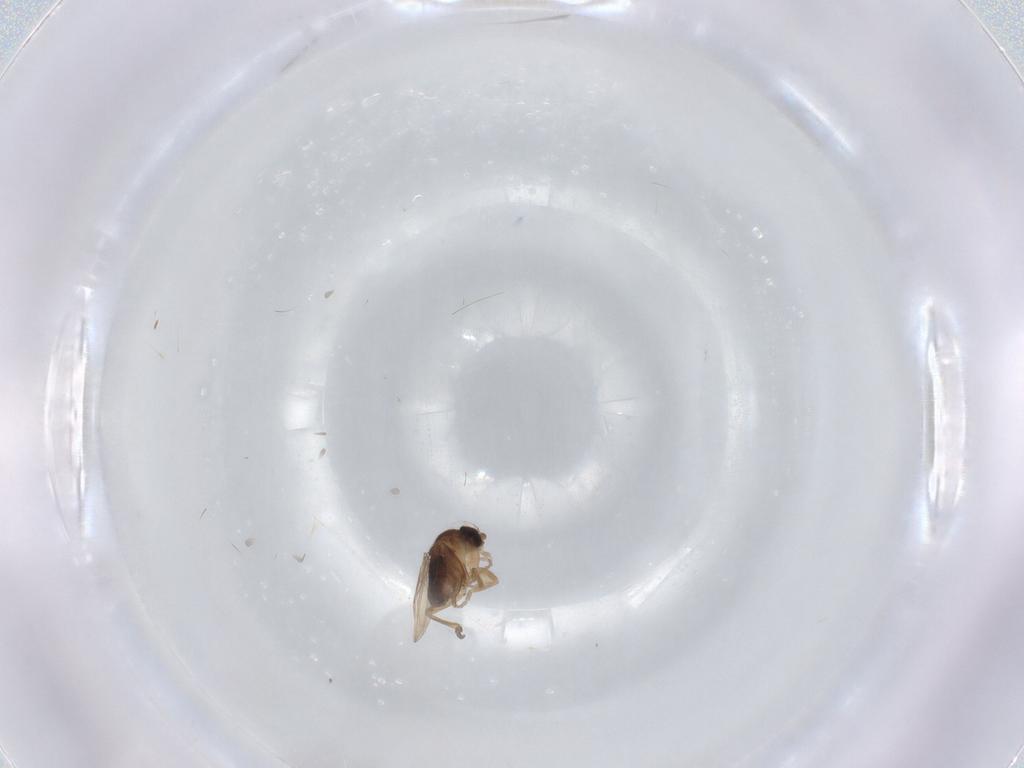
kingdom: Animalia
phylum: Arthropoda
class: Insecta
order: Diptera
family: Phoridae
